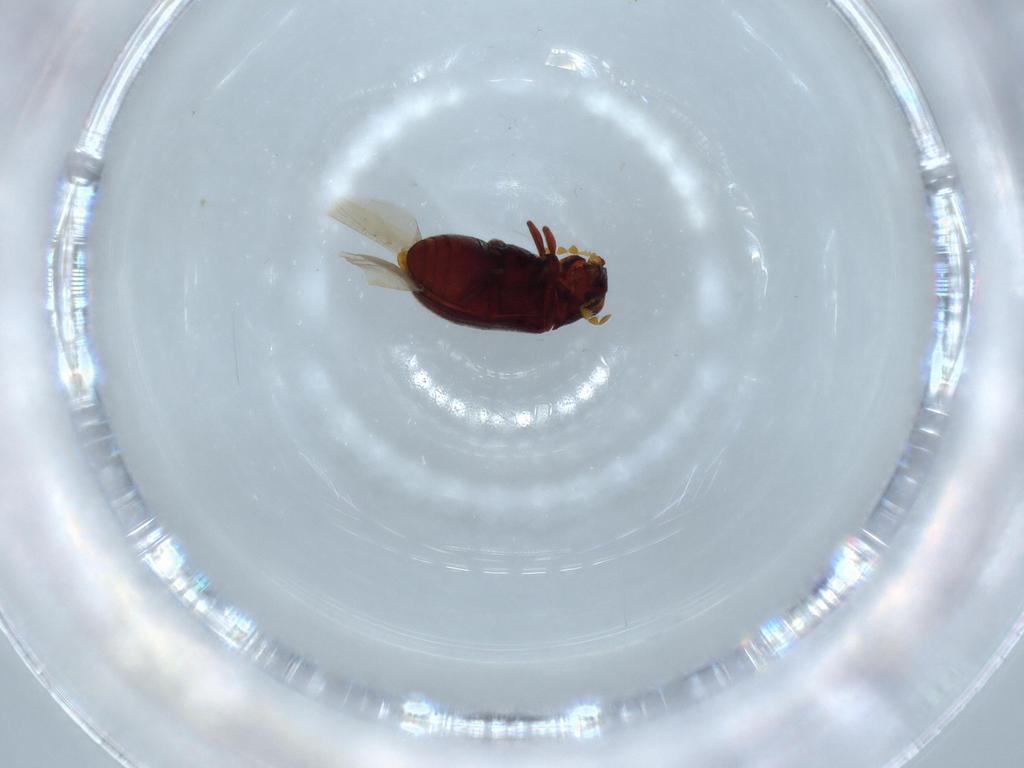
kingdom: Animalia
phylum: Arthropoda
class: Insecta
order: Coleoptera
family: Anobiidae
